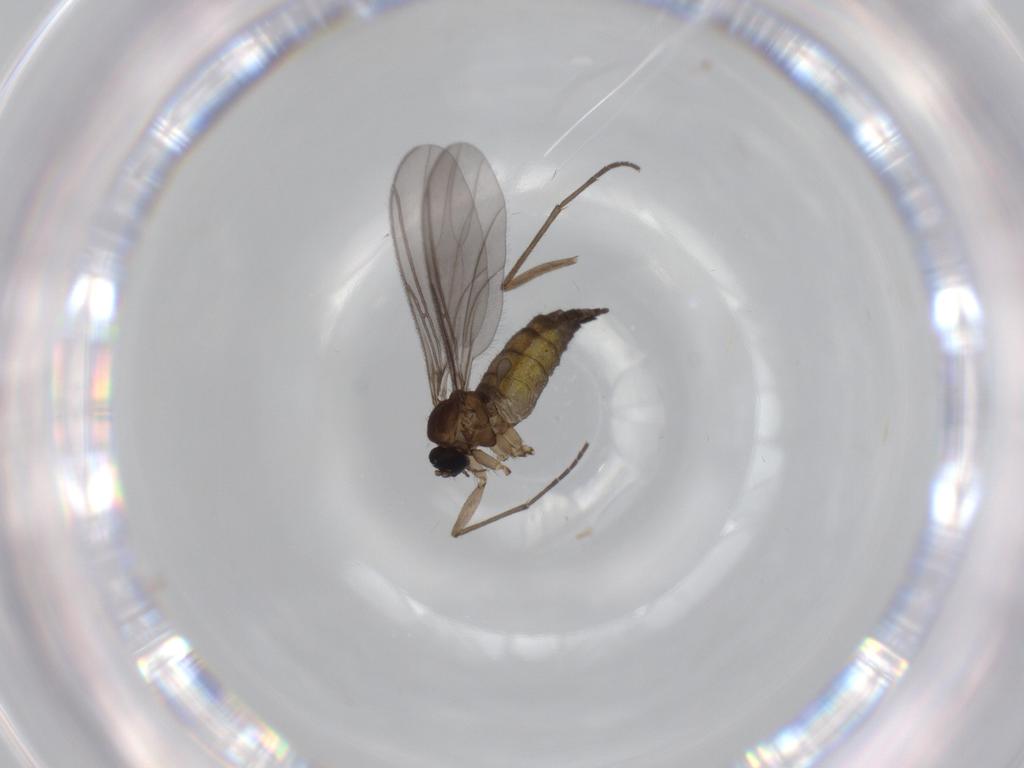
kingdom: Animalia
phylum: Arthropoda
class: Insecta
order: Diptera
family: Sciaridae
